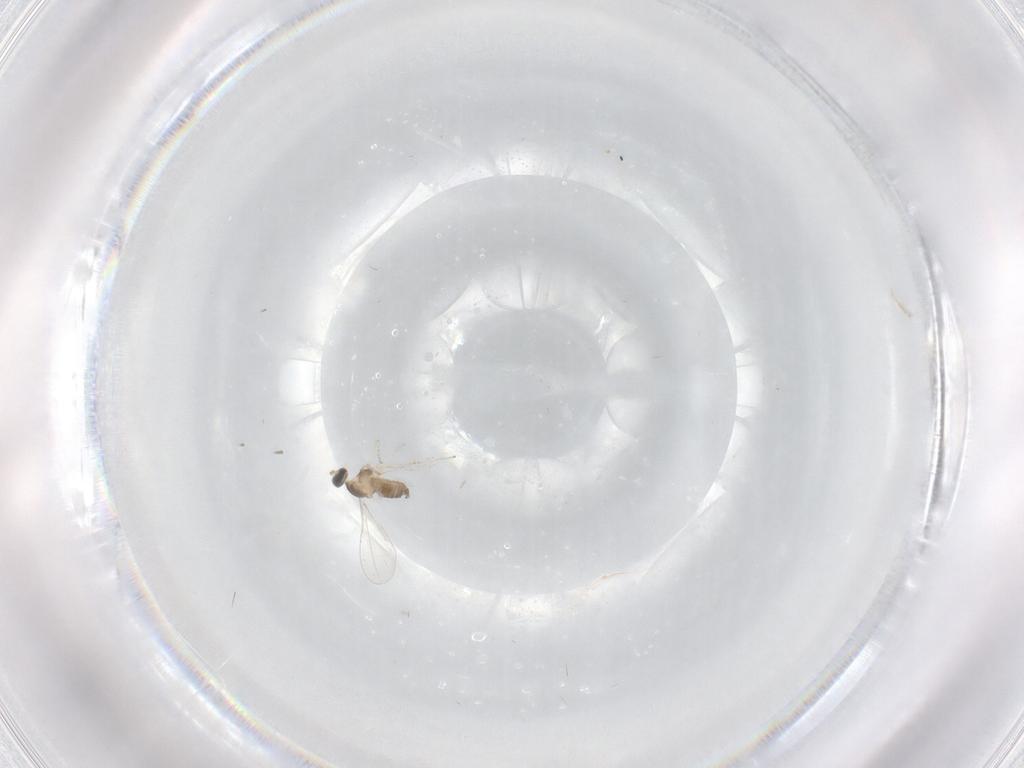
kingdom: Animalia
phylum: Arthropoda
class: Insecta
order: Diptera
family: Cecidomyiidae
